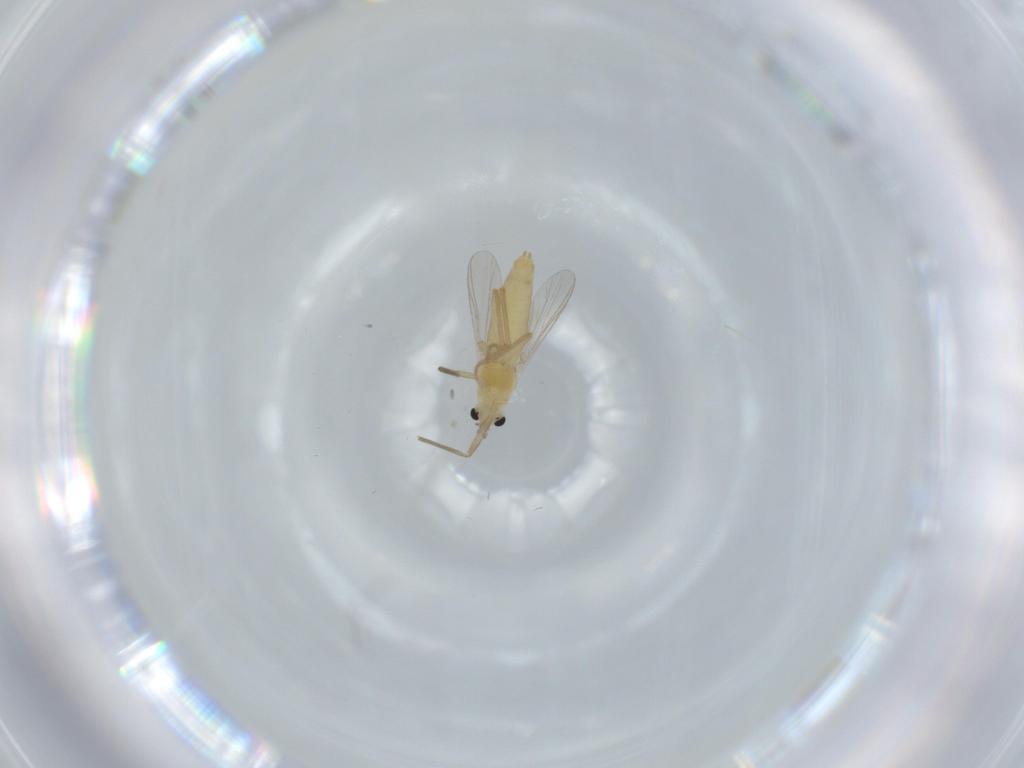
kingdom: Animalia
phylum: Arthropoda
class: Insecta
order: Diptera
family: Chironomidae
